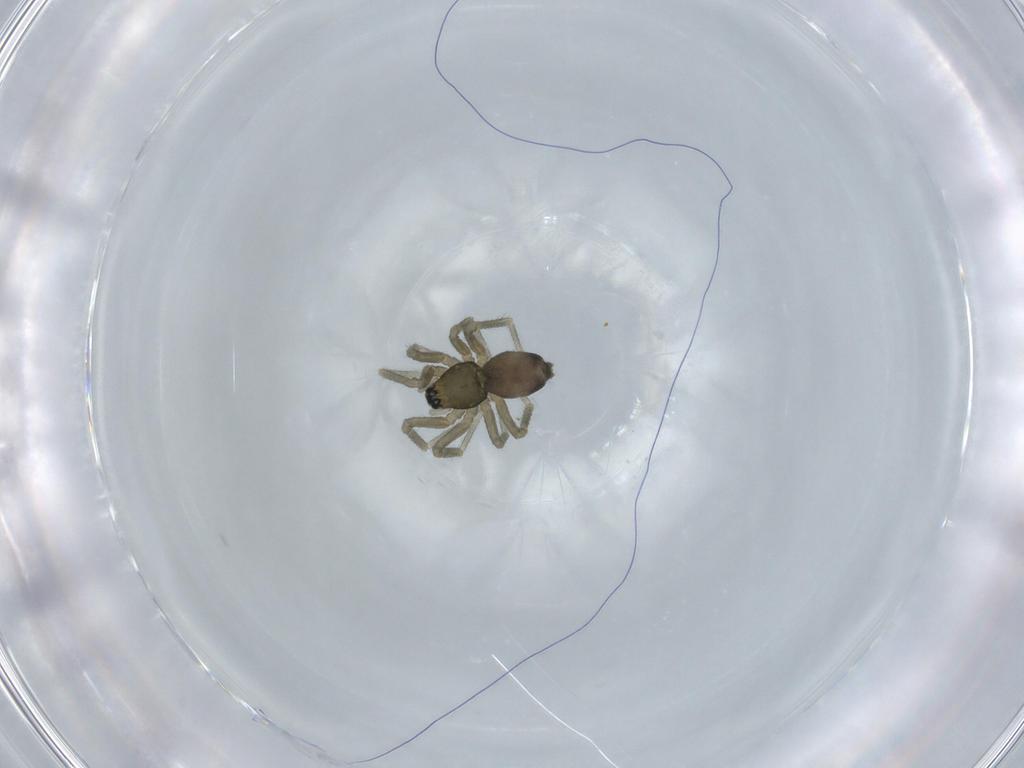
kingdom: Animalia
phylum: Arthropoda
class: Arachnida
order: Araneae
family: Linyphiidae
